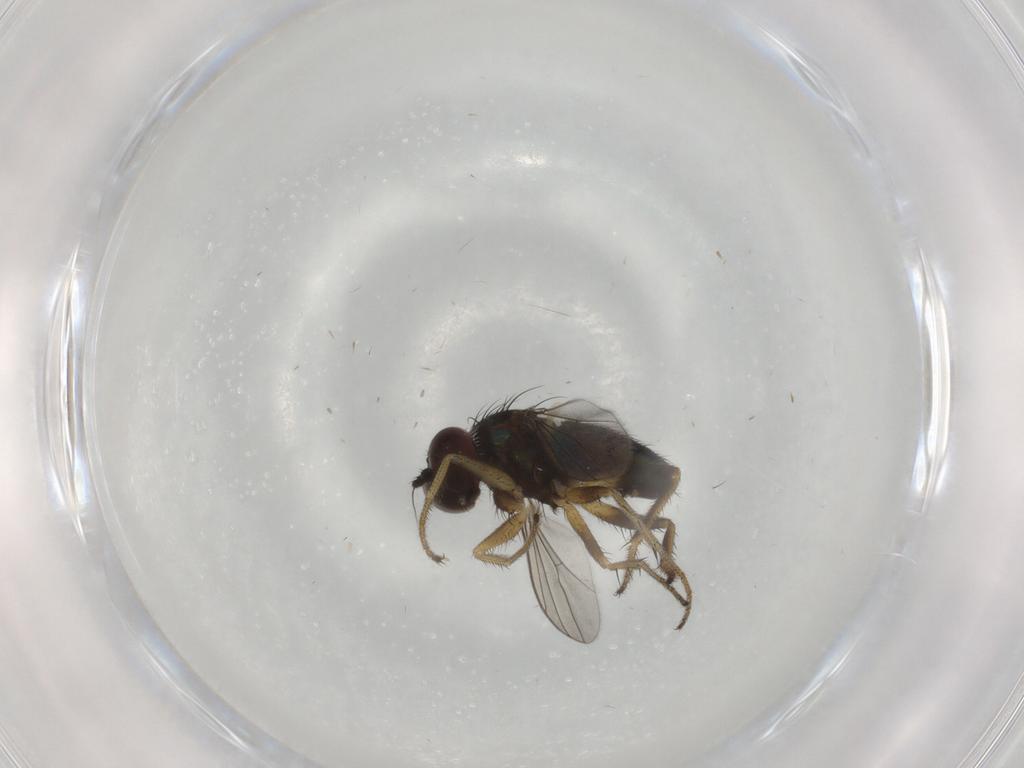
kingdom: Animalia
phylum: Arthropoda
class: Insecta
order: Diptera
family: Dolichopodidae
